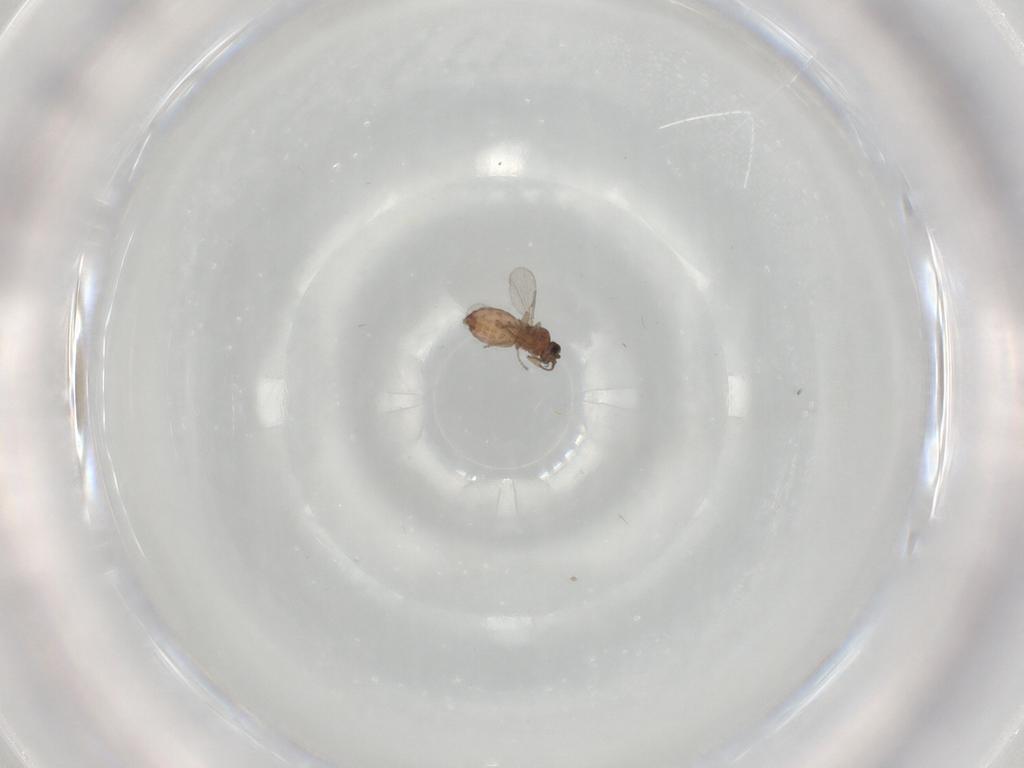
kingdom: Animalia
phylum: Arthropoda
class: Insecta
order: Diptera
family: Ceratopogonidae
